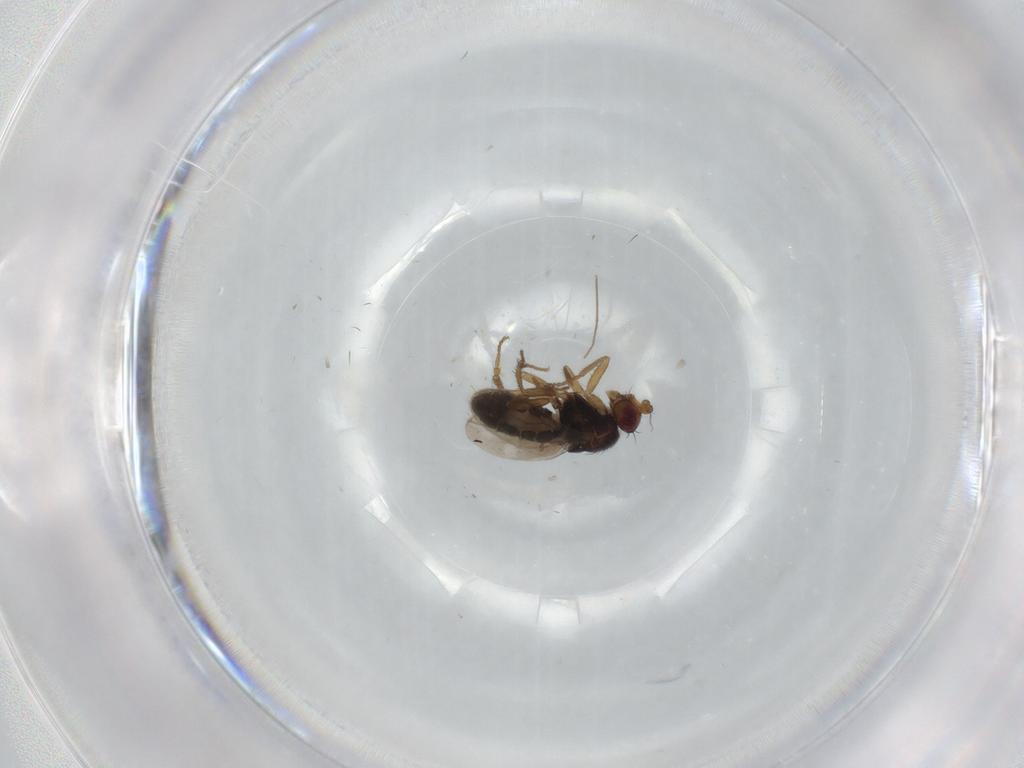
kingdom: Animalia
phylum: Arthropoda
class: Insecta
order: Diptera
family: Sphaeroceridae
